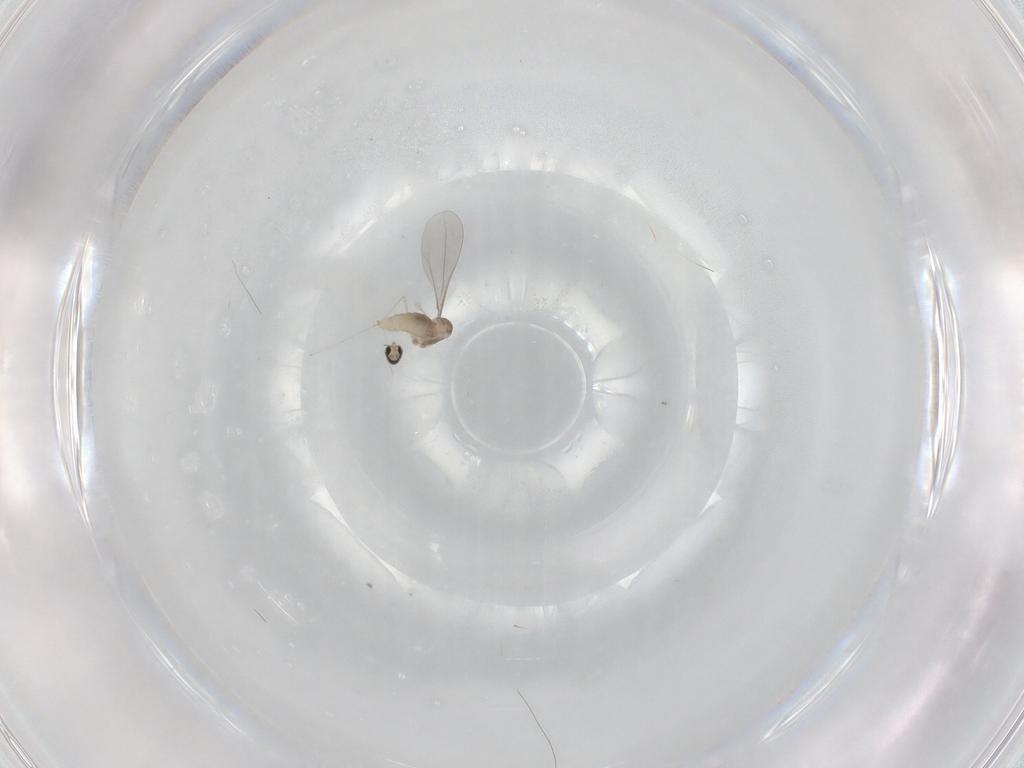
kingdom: Animalia
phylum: Arthropoda
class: Insecta
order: Diptera
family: Cecidomyiidae
